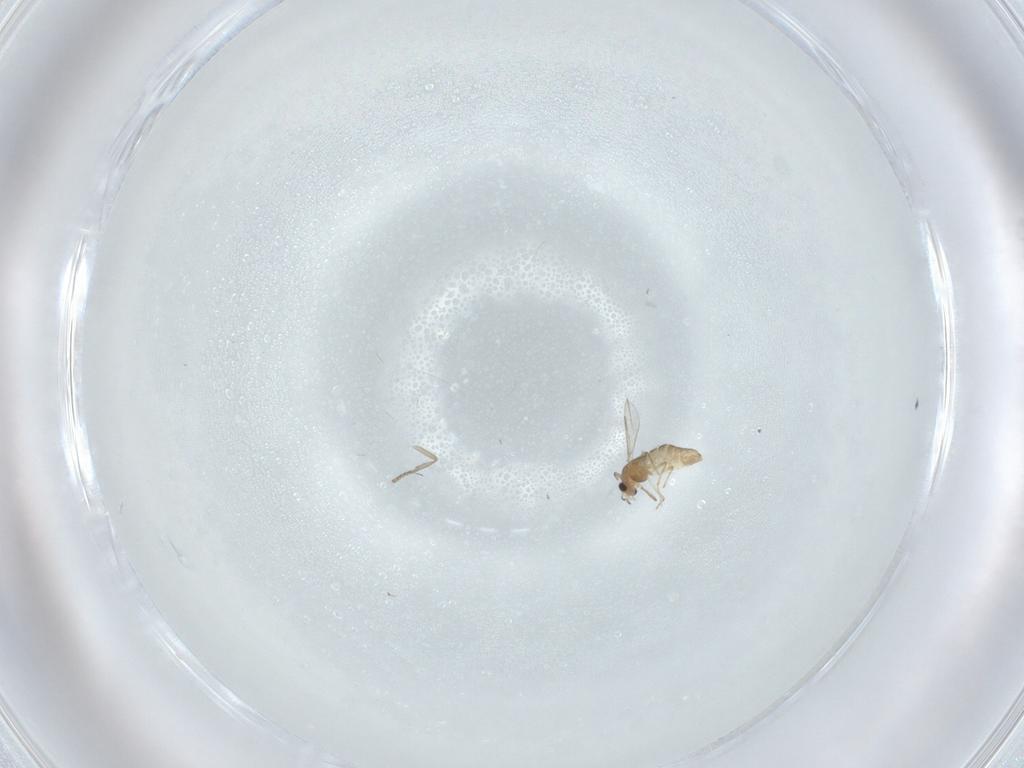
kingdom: Animalia
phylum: Arthropoda
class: Insecta
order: Diptera
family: Chironomidae
